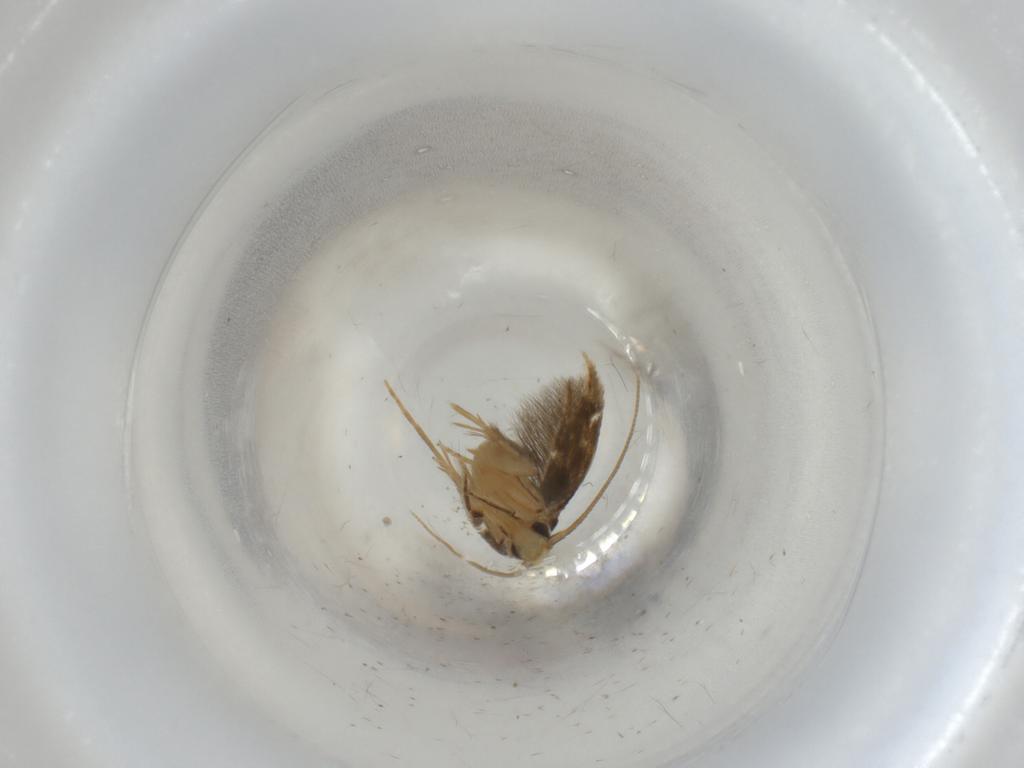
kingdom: Animalia
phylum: Arthropoda
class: Insecta
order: Lepidoptera
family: Tineidae
